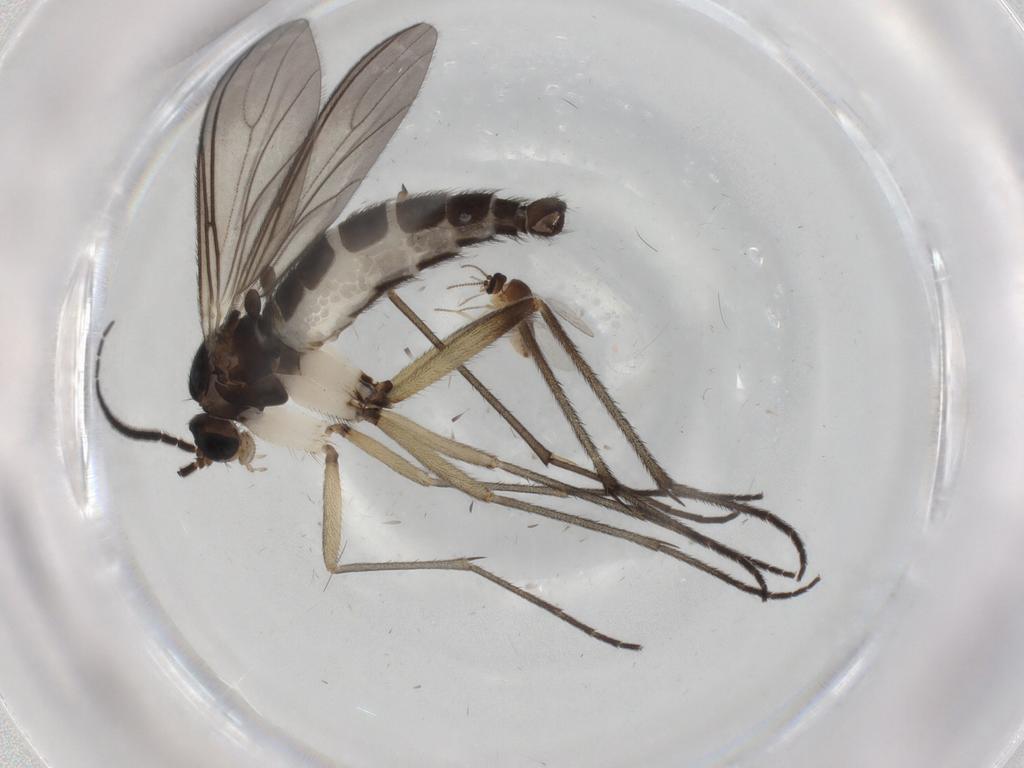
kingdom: Animalia
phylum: Arthropoda
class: Insecta
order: Diptera
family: Sciaridae
